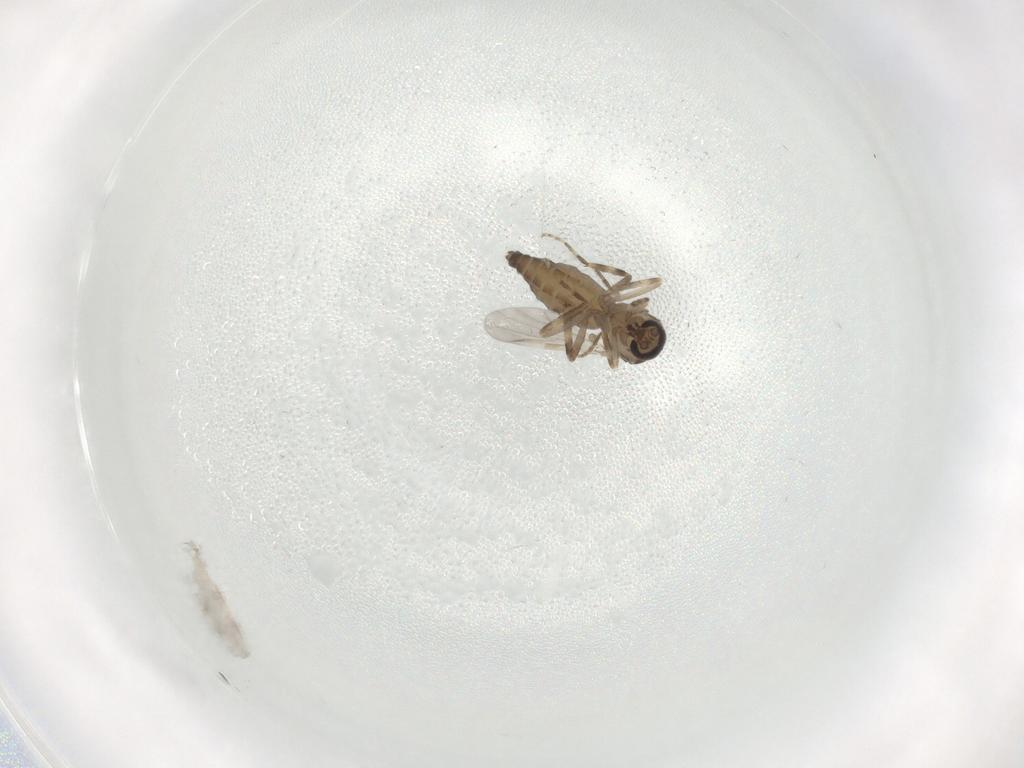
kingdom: Animalia
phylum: Arthropoda
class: Insecta
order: Diptera
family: Ceratopogonidae
